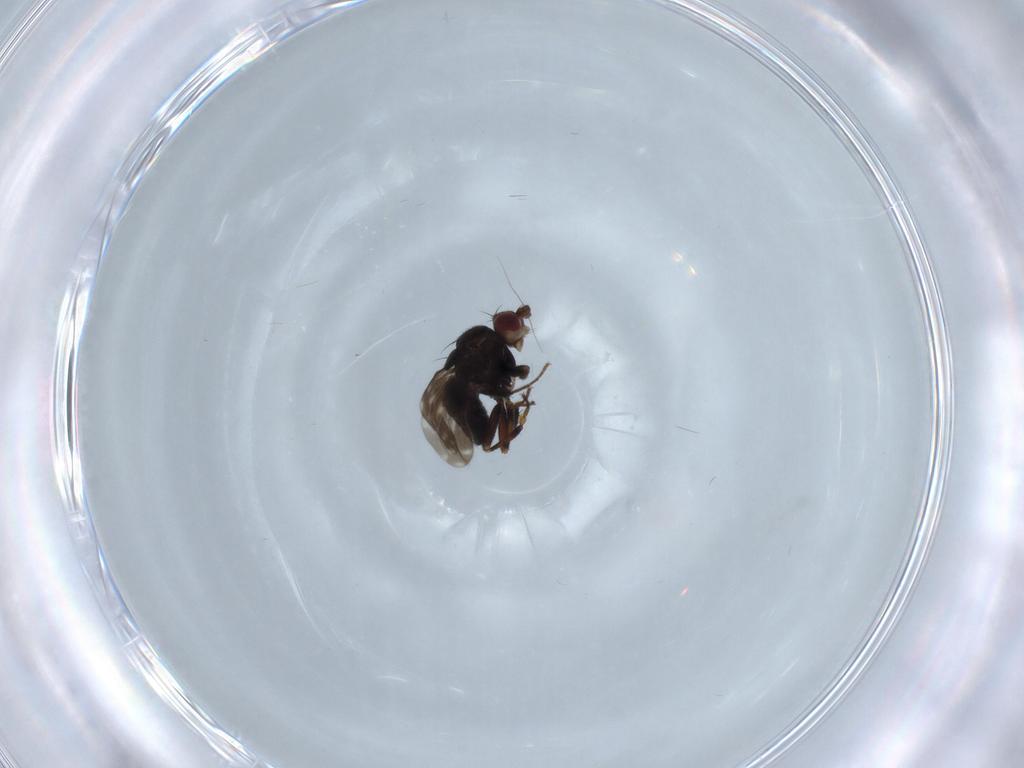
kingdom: Animalia
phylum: Arthropoda
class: Insecta
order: Diptera
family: Sphaeroceridae
